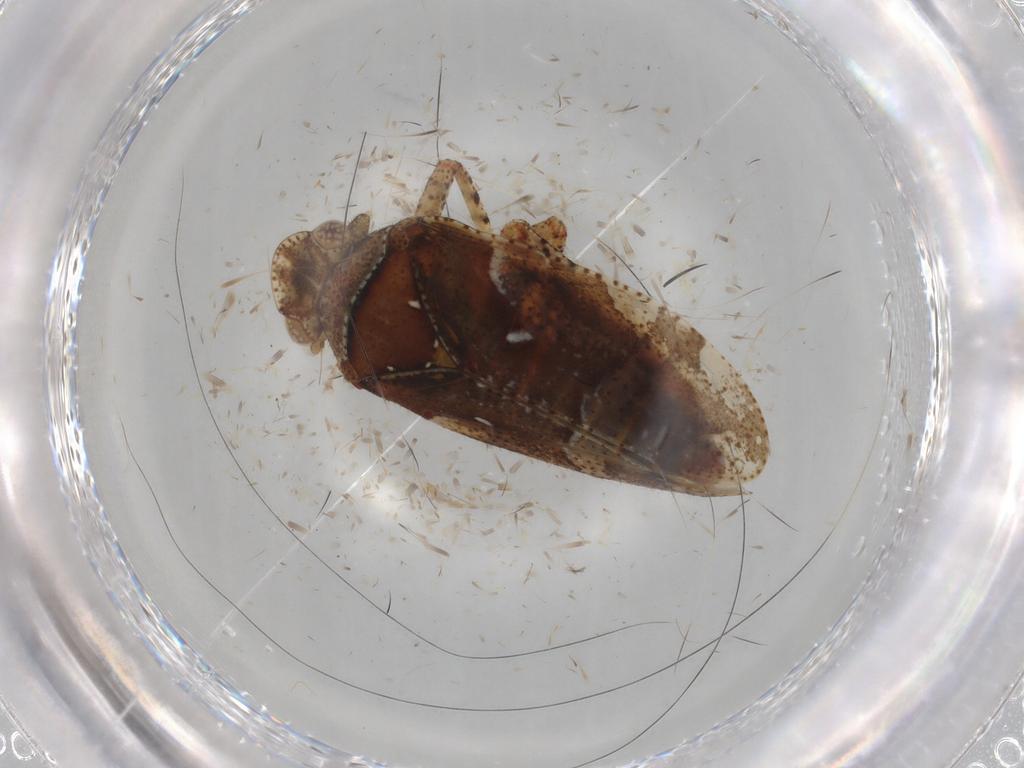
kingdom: Animalia
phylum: Arthropoda
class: Insecta
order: Hemiptera
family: Tettigometridae
